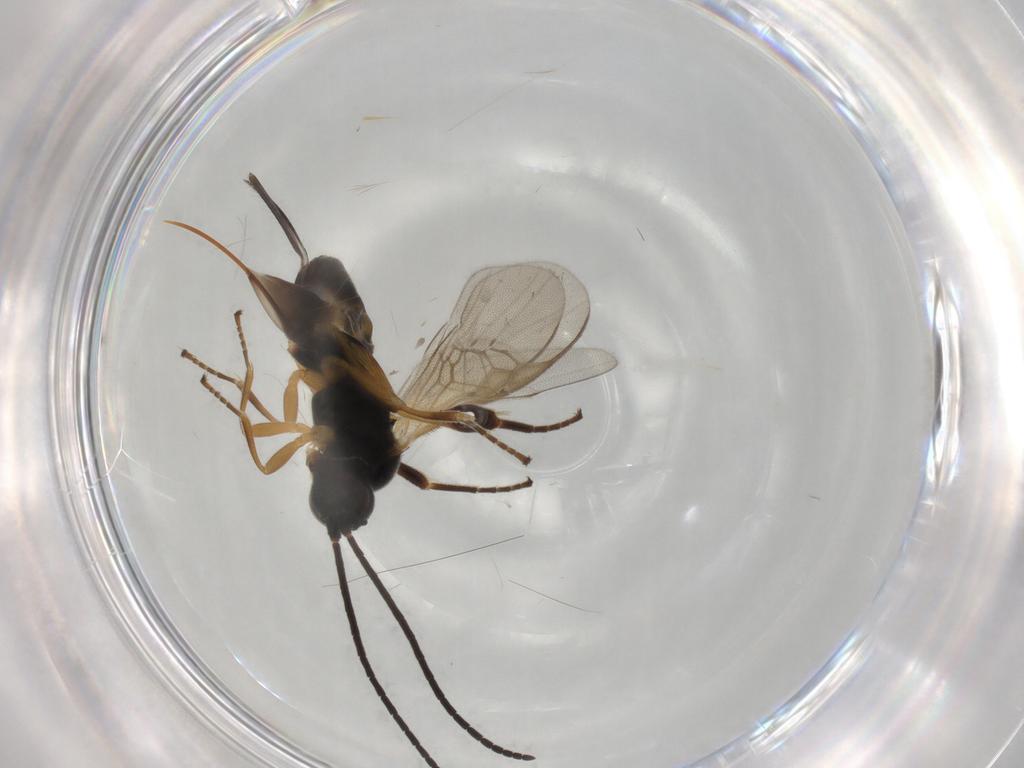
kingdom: Animalia
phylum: Arthropoda
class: Insecta
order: Hymenoptera
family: Braconidae
